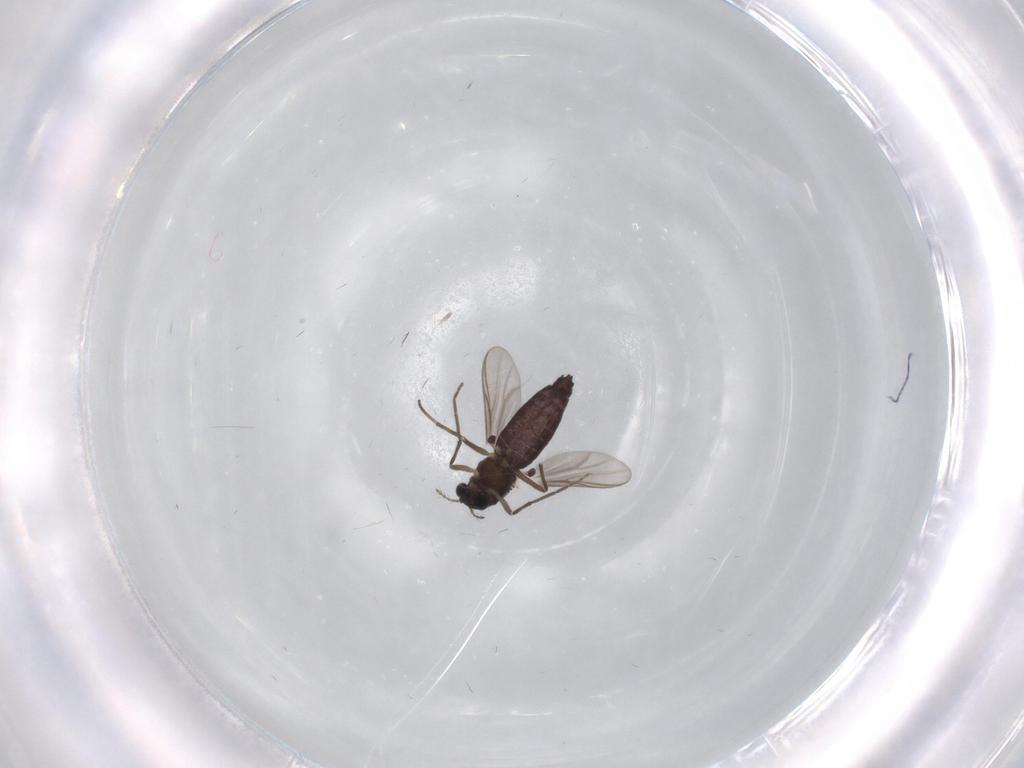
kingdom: Animalia
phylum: Arthropoda
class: Insecta
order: Diptera
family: Chironomidae
